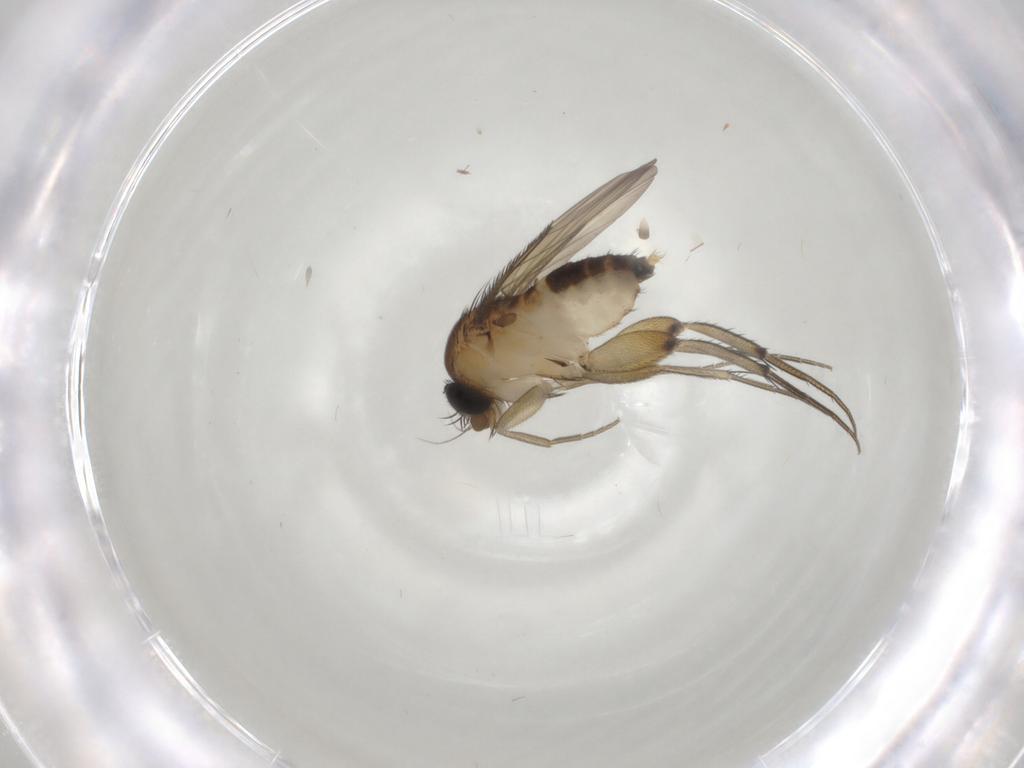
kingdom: Animalia
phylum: Arthropoda
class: Insecta
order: Diptera
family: Phoridae
